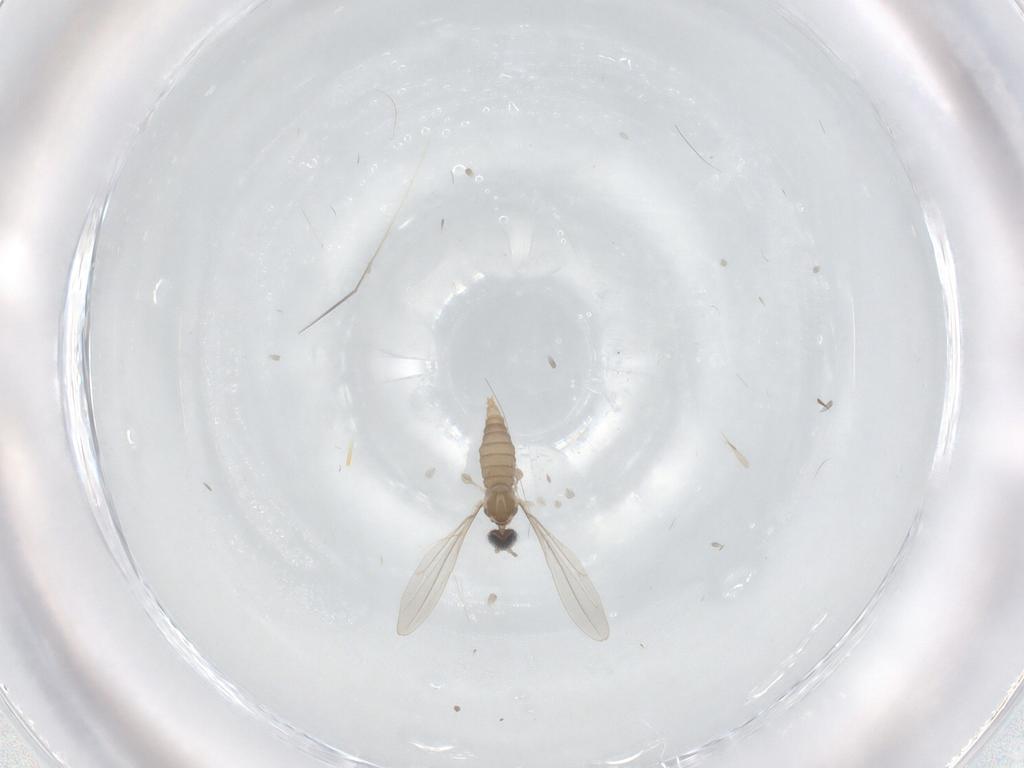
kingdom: Animalia
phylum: Arthropoda
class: Insecta
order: Diptera
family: Cecidomyiidae
